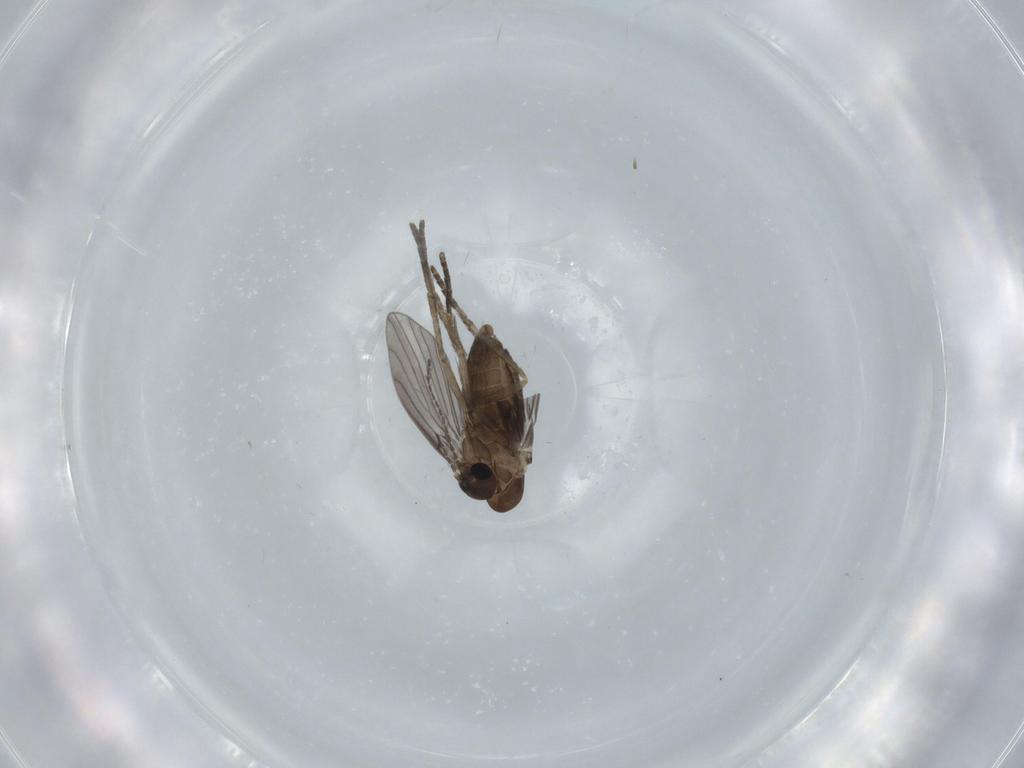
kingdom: Animalia
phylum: Arthropoda
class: Insecta
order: Diptera
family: Psychodidae
